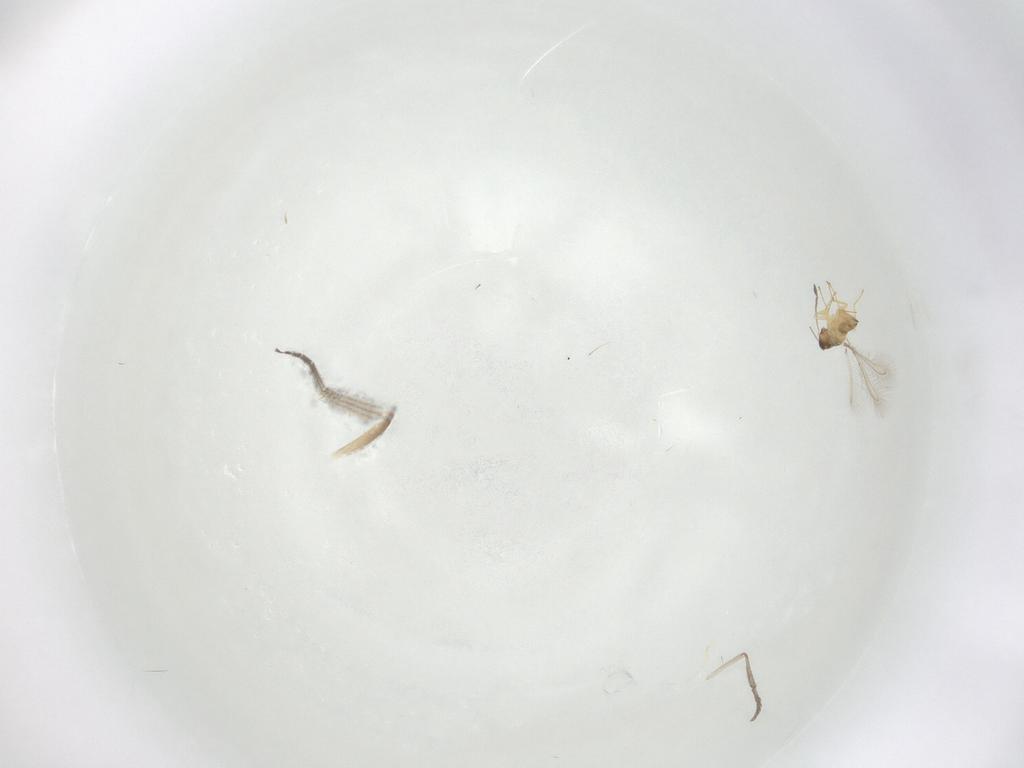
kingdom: Animalia
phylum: Arthropoda
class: Insecta
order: Hymenoptera
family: Mymaridae
